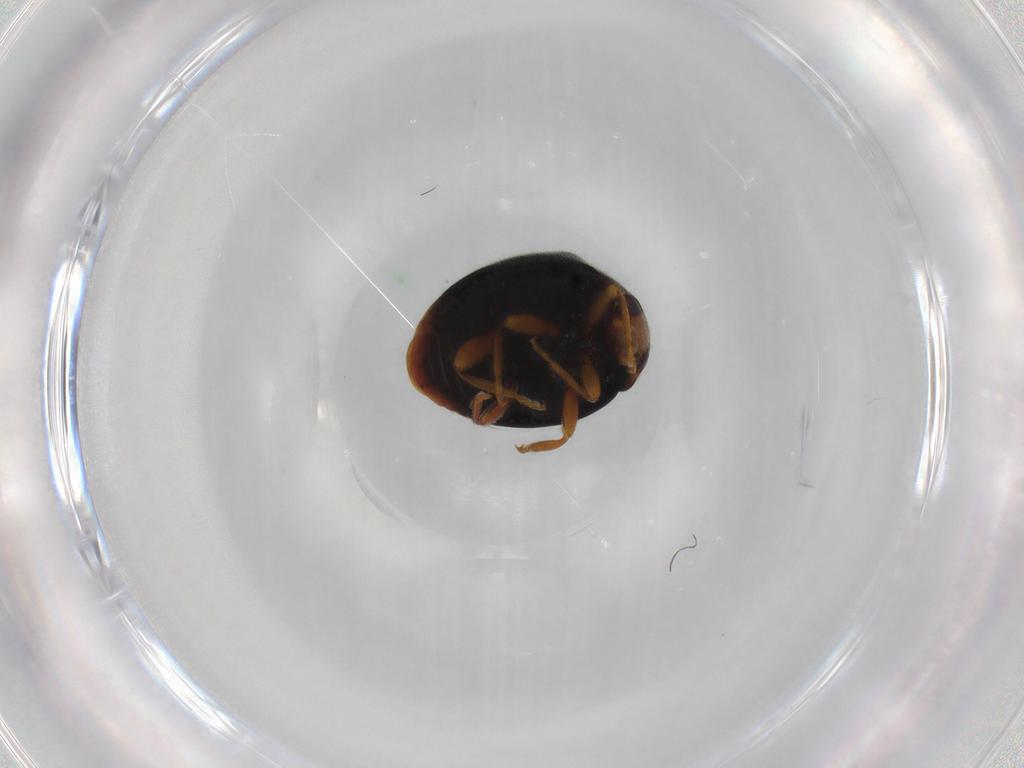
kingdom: Animalia
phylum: Arthropoda
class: Insecta
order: Coleoptera
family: Coccinellidae
